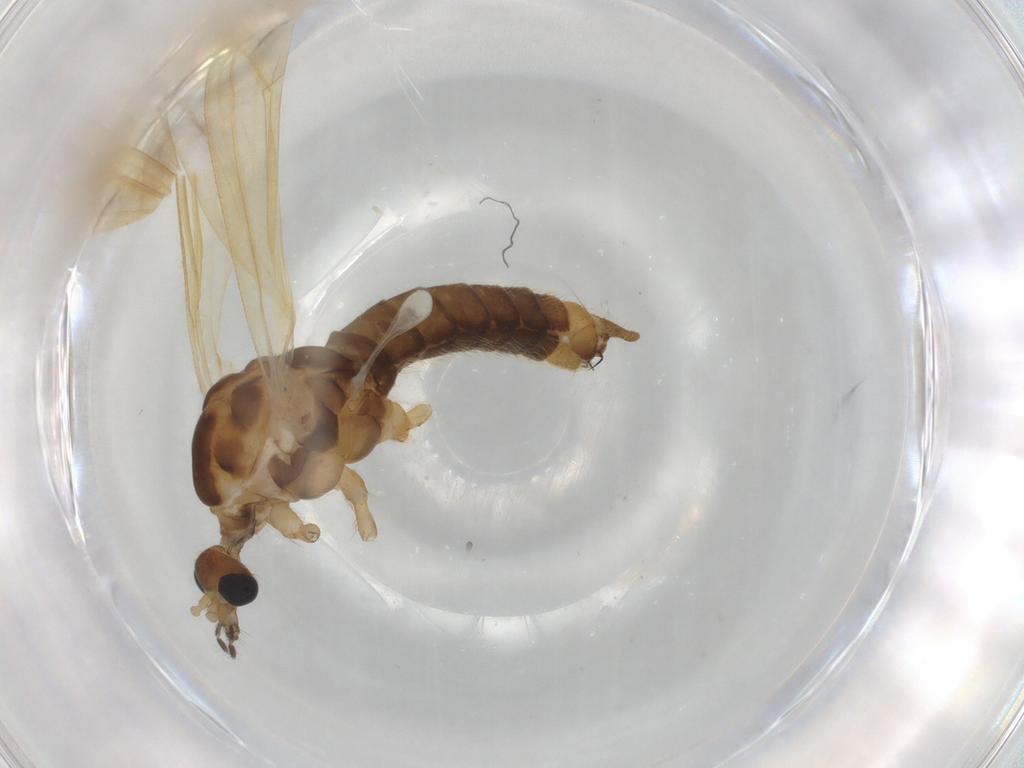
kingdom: Animalia
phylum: Arthropoda
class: Insecta
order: Diptera
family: Limoniidae
